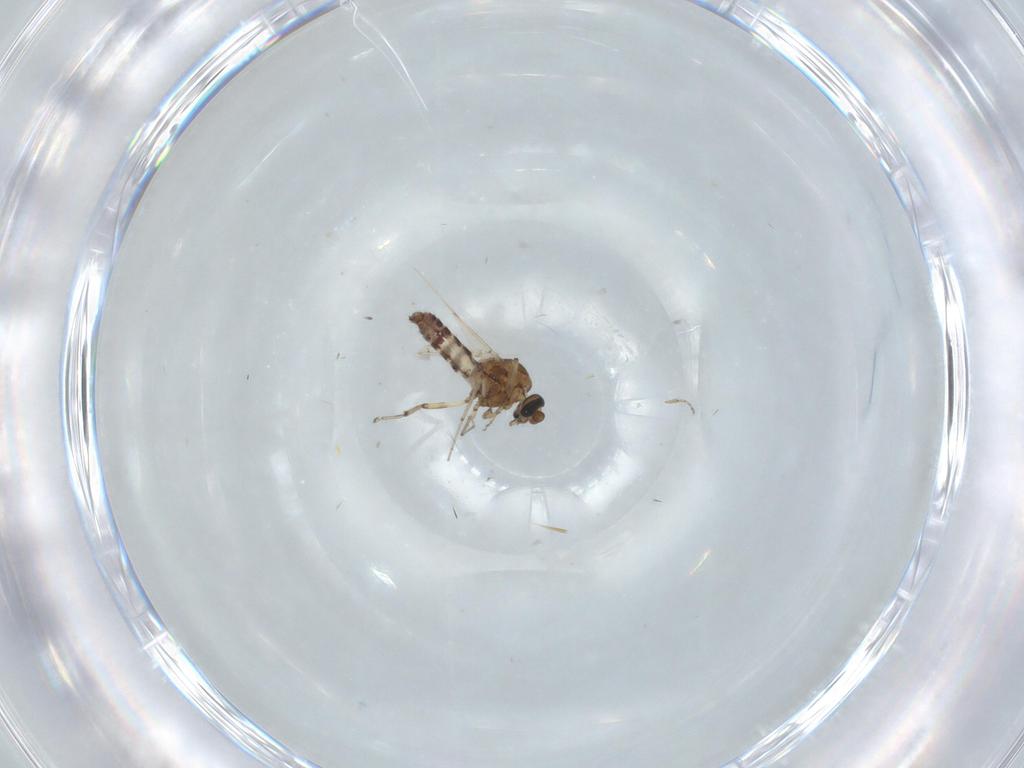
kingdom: Animalia
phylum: Arthropoda
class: Insecta
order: Diptera
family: Ceratopogonidae
